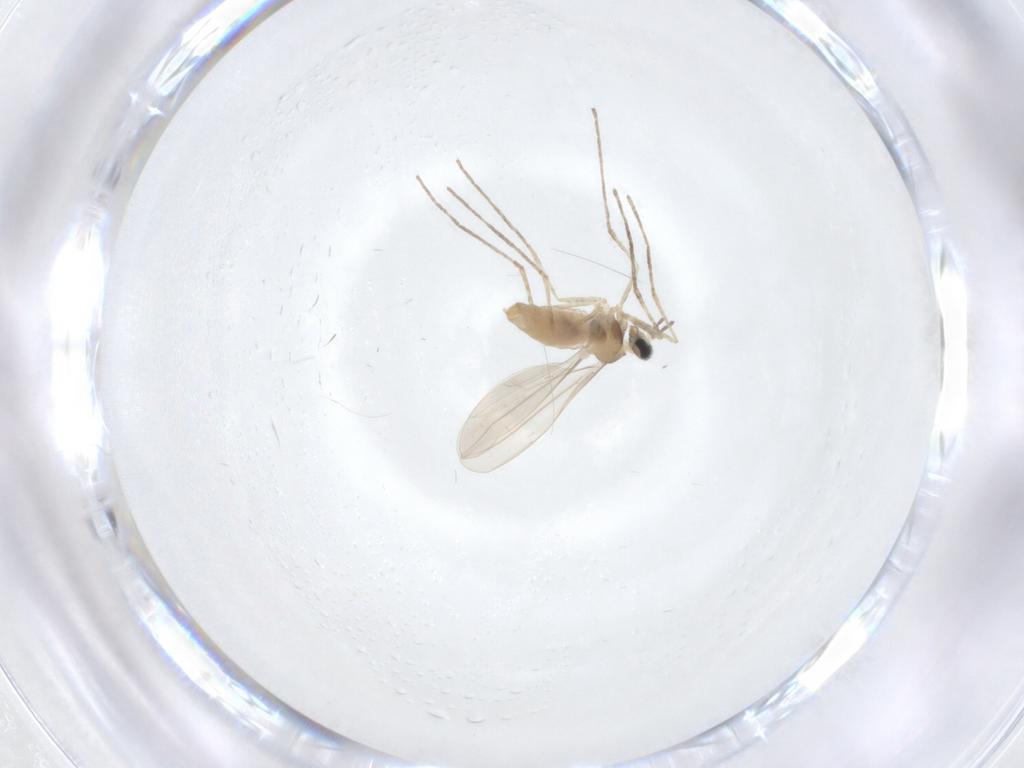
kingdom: Animalia
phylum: Arthropoda
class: Insecta
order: Diptera
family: Cecidomyiidae
